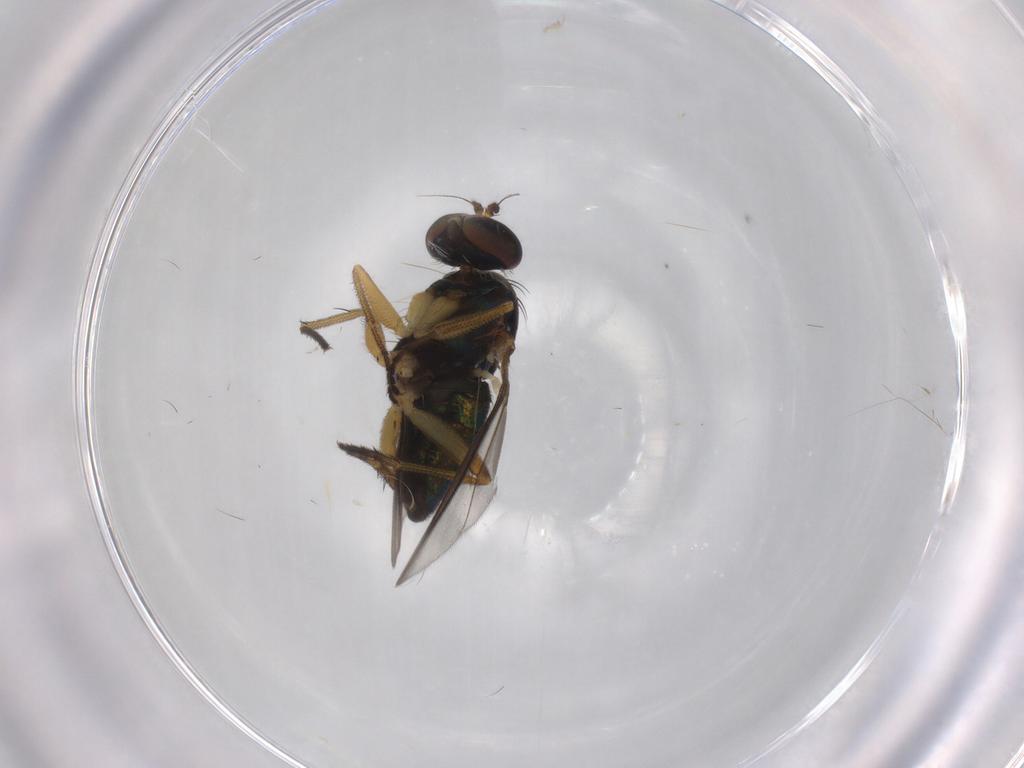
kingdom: Animalia
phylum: Arthropoda
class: Insecta
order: Diptera
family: Dolichopodidae
